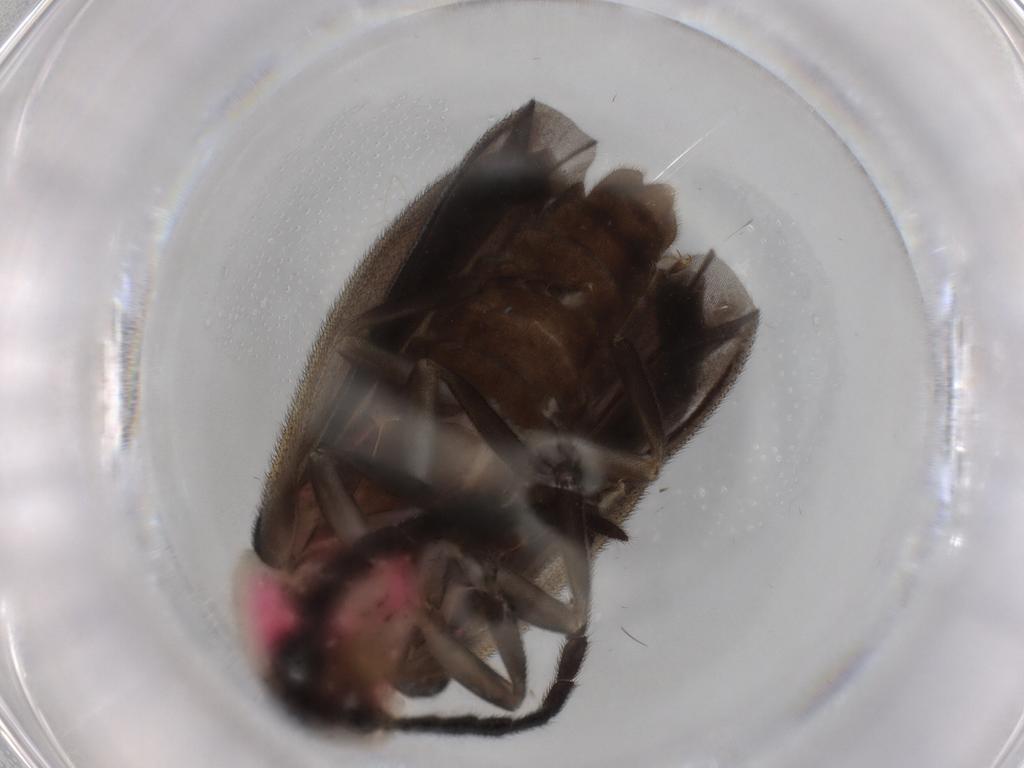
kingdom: Animalia
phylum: Arthropoda
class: Insecta
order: Coleoptera
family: Lampyridae
